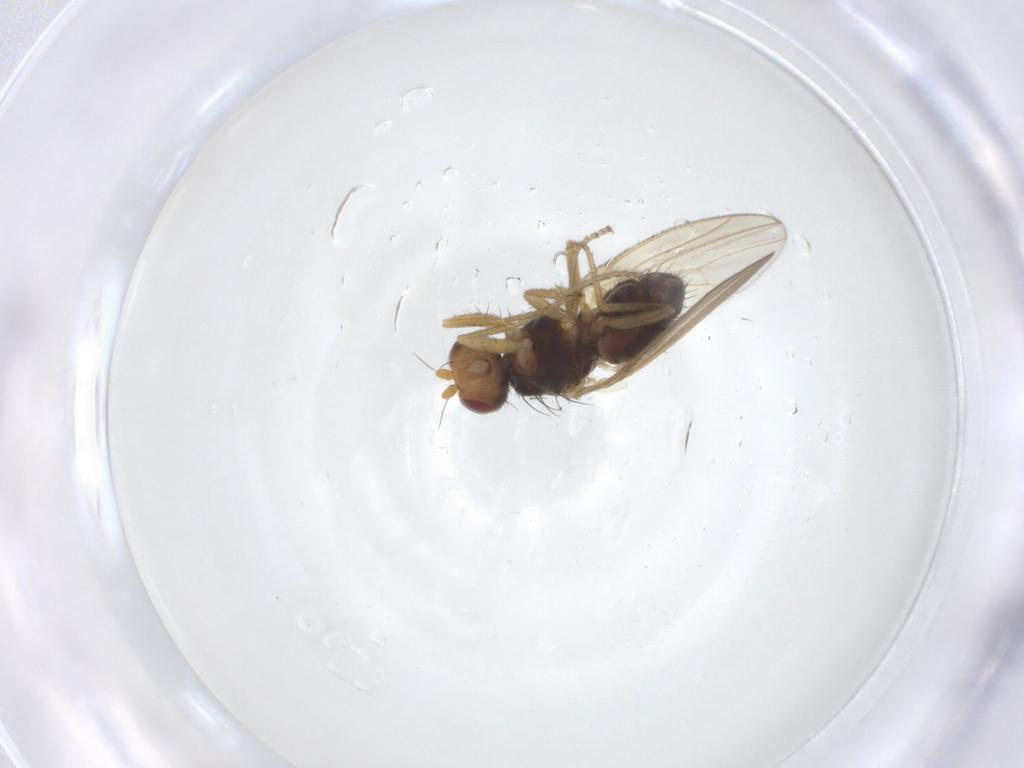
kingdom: Animalia
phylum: Arthropoda
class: Insecta
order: Diptera
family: Heleomyzidae
